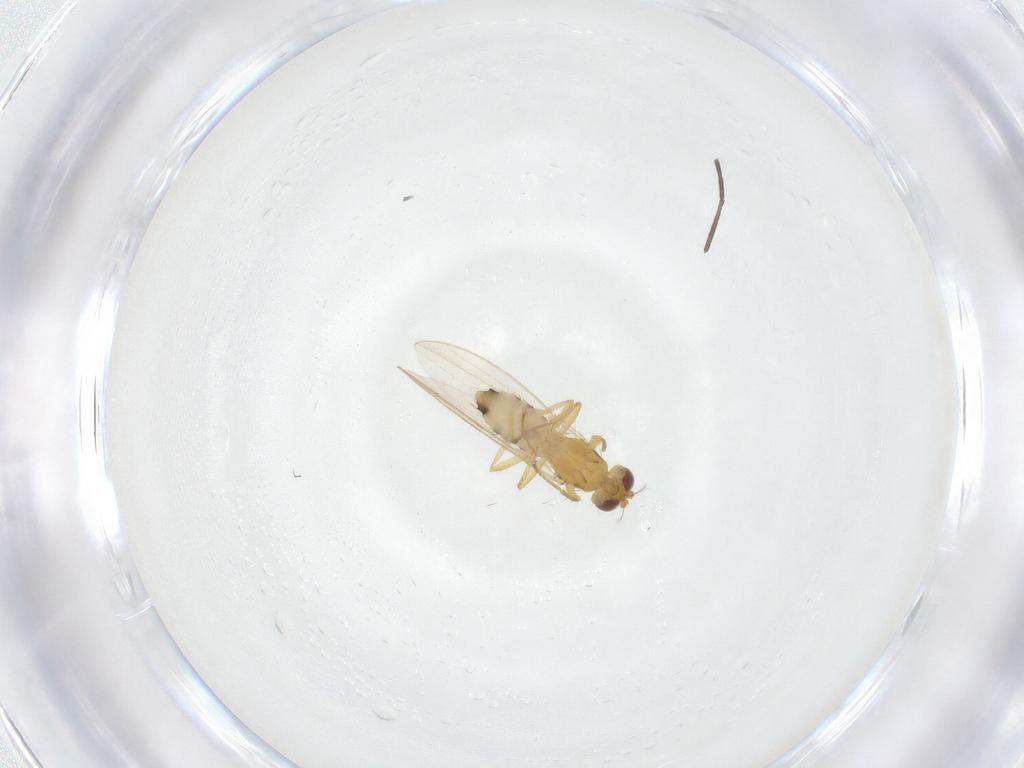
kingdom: Animalia
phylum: Arthropoda
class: Insecta
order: Diptera
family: Periscelididae
